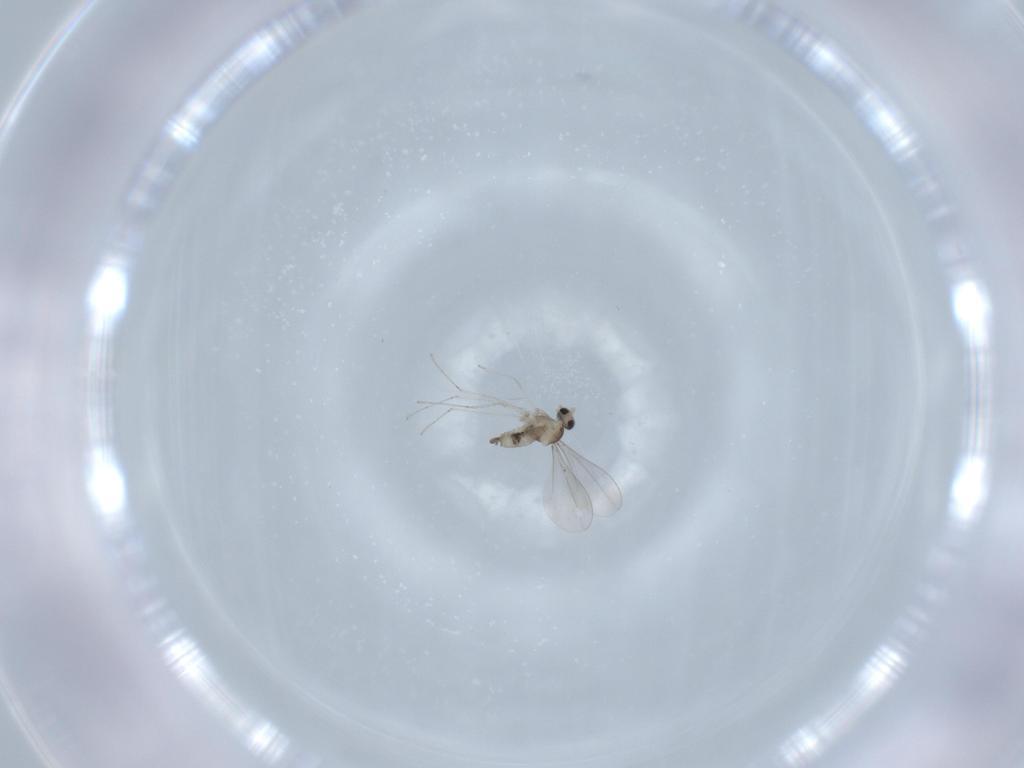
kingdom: Animalia
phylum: Arthropoda
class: Insecta
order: Diptera
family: Cecidomyiidae
